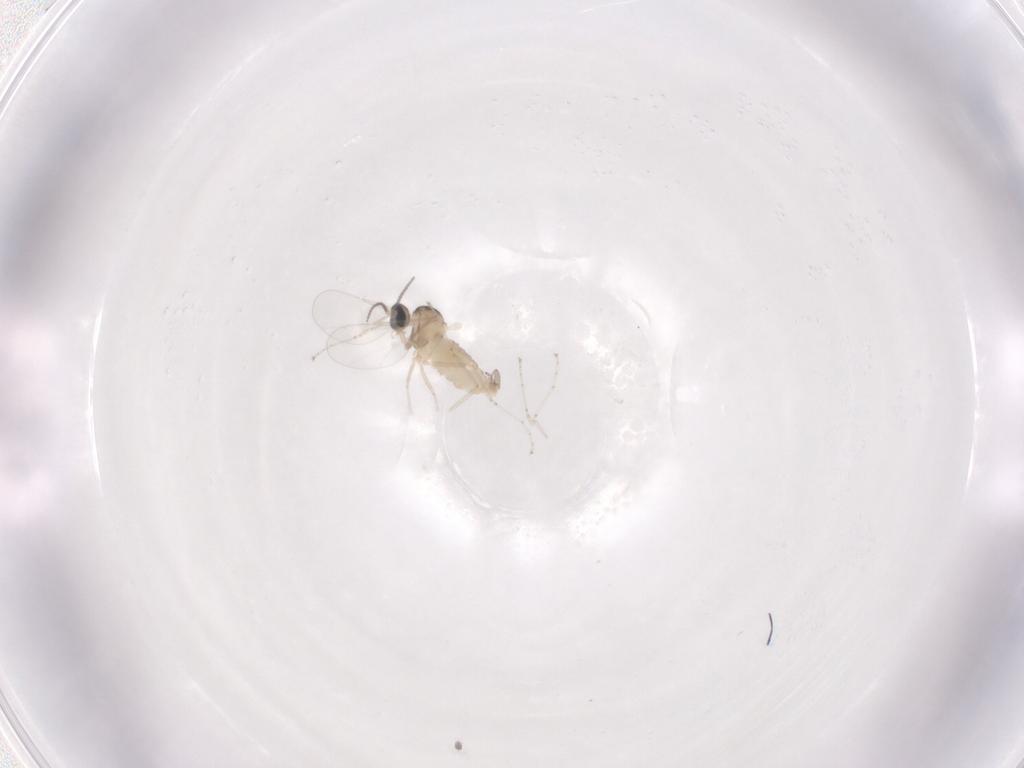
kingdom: Animalia
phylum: Arthropoda
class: Insecta
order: Diptera
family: Cecidomyiidae
